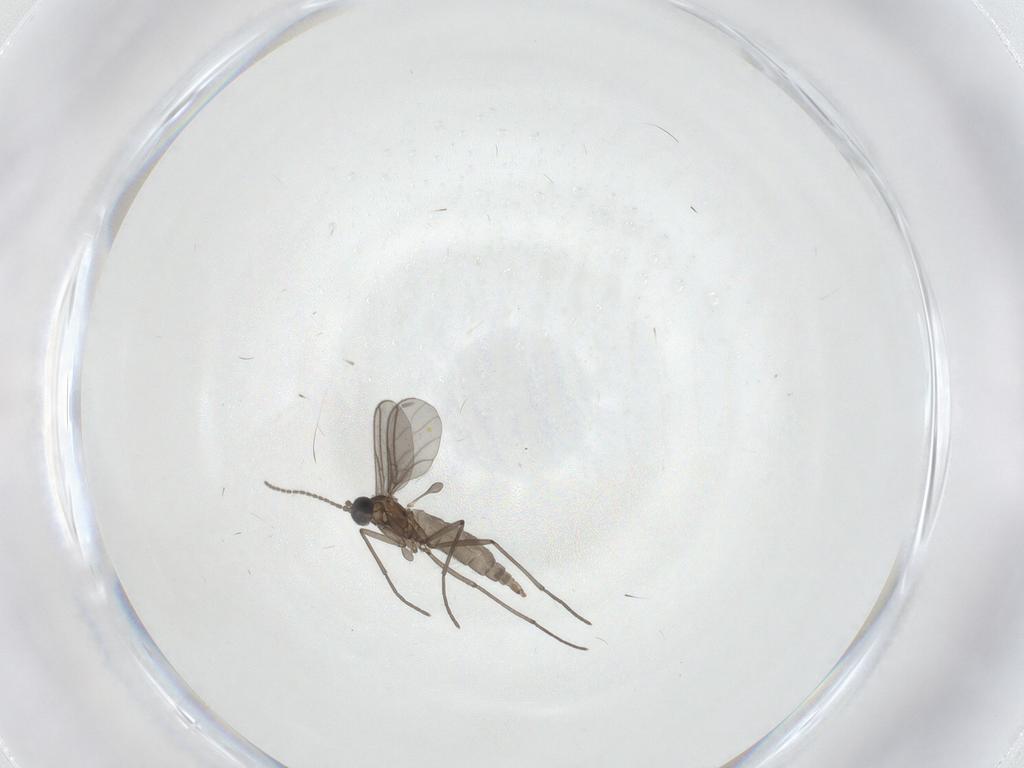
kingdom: Animalia
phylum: Arthropoda
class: Insecta
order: Diptera
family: Sciaridae
